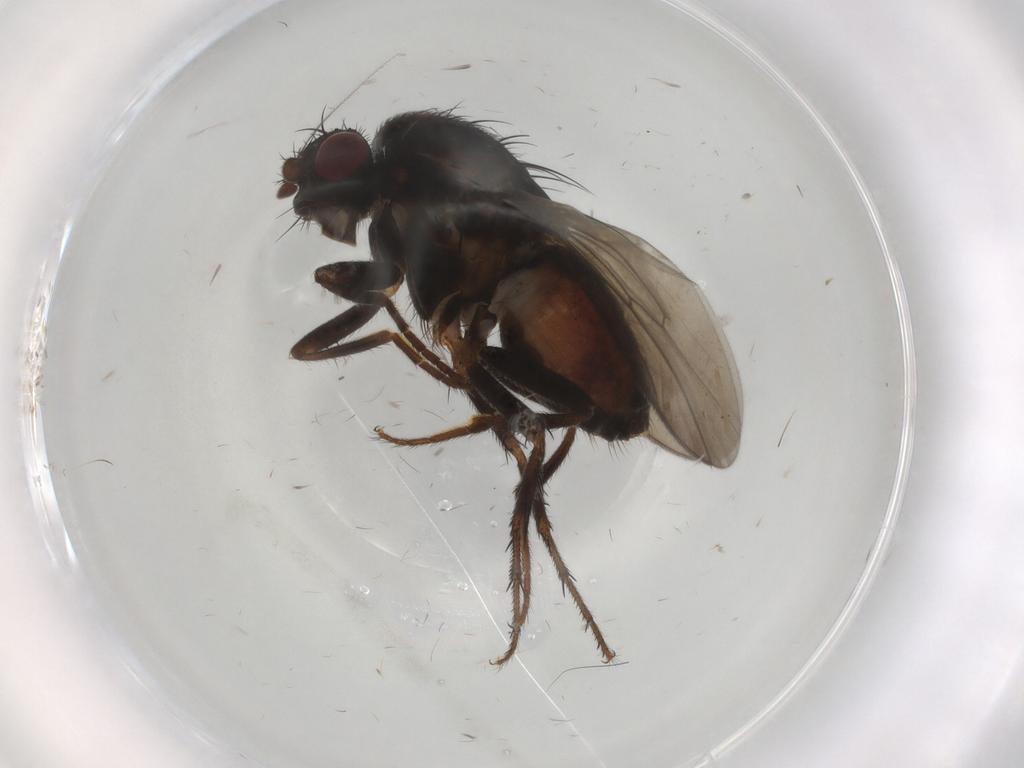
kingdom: Animalia
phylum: Arthropoda
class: Insecta
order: Diptera
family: Sphaeroceridae
